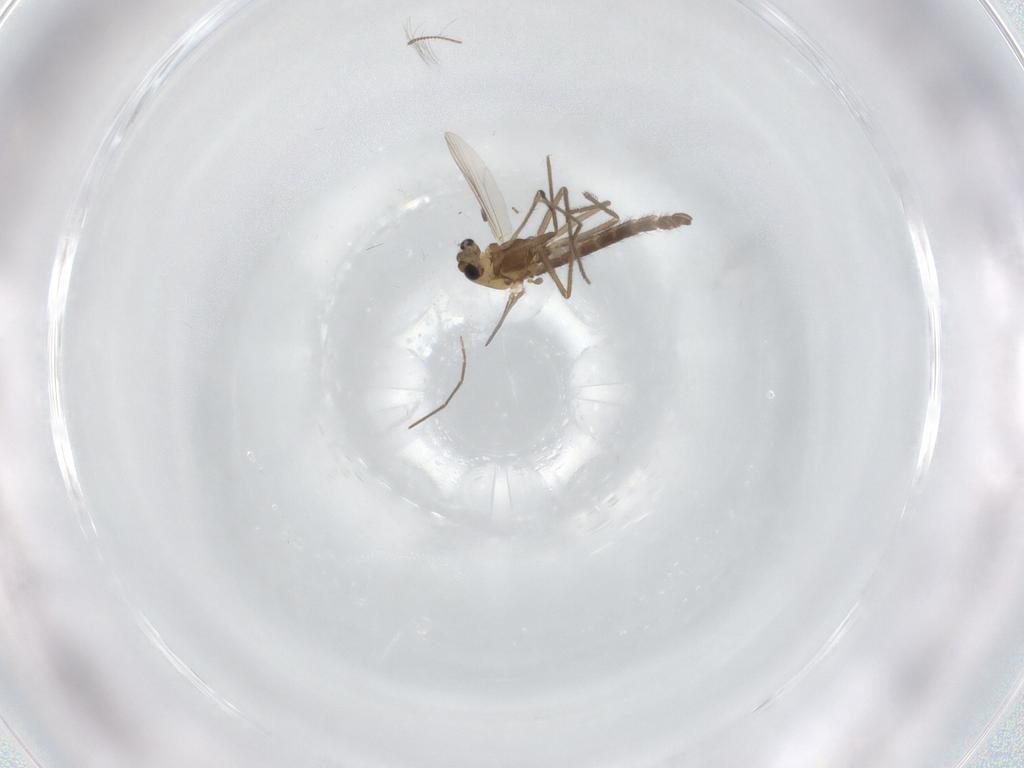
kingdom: Animalia
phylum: Arthropoda
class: Insecta
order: Diptera
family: Chironomidae
